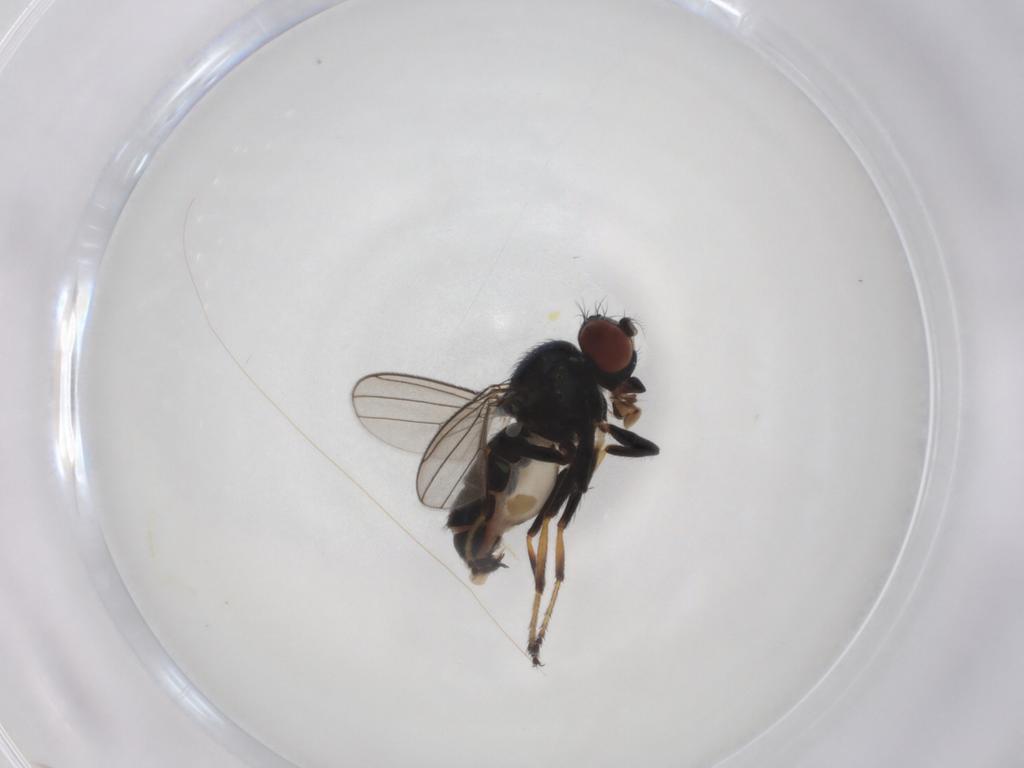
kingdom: Animalia
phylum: Arthropoda
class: Insecta
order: Diptera
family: Ephydridae
